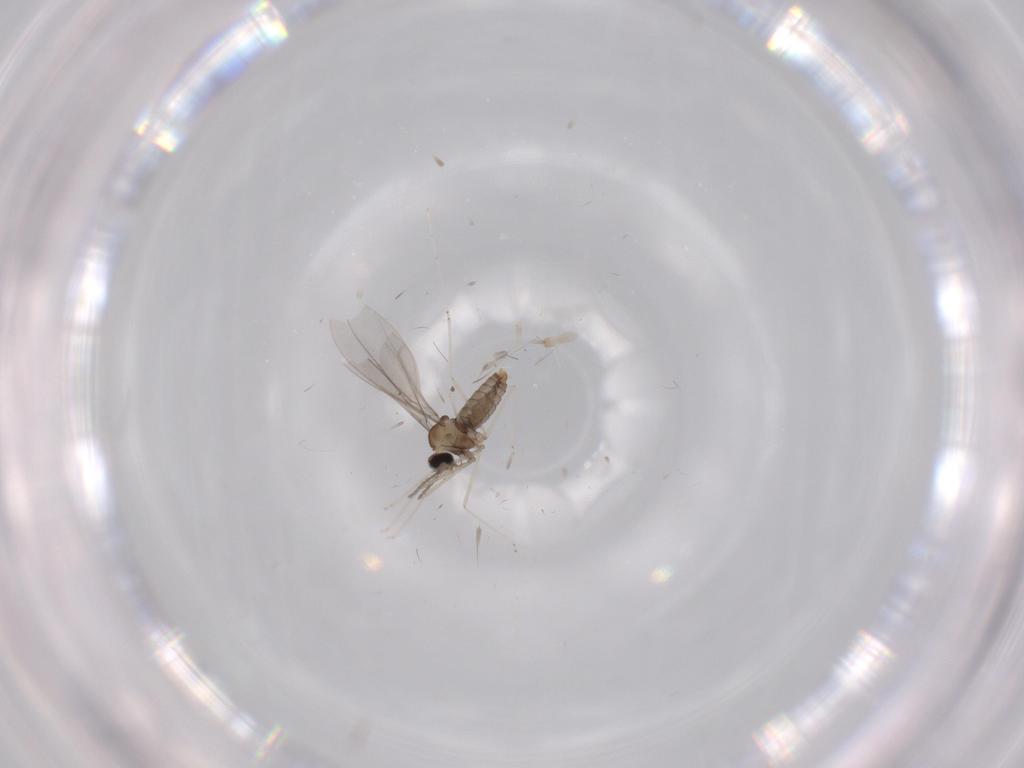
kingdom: Animalia
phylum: Arthropoda
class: Insecta
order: Diptera
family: Cecidomyiidae
